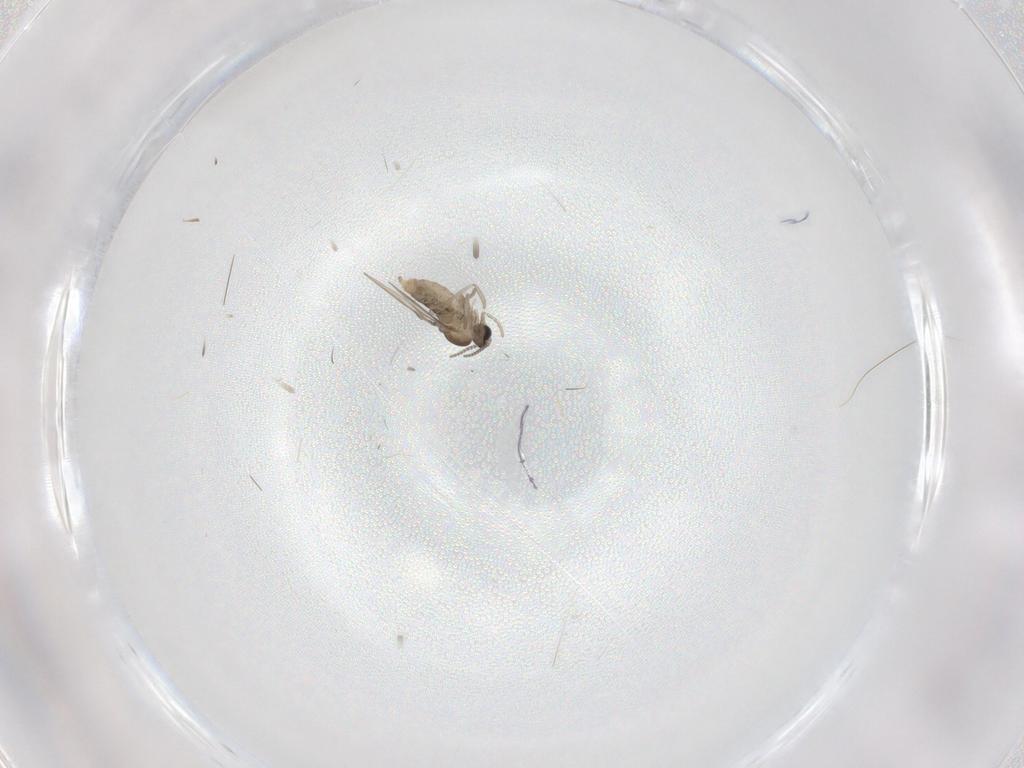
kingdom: Animalia
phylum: Arthropoda
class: Insecta
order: Diptera
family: Cecidomyiidae
